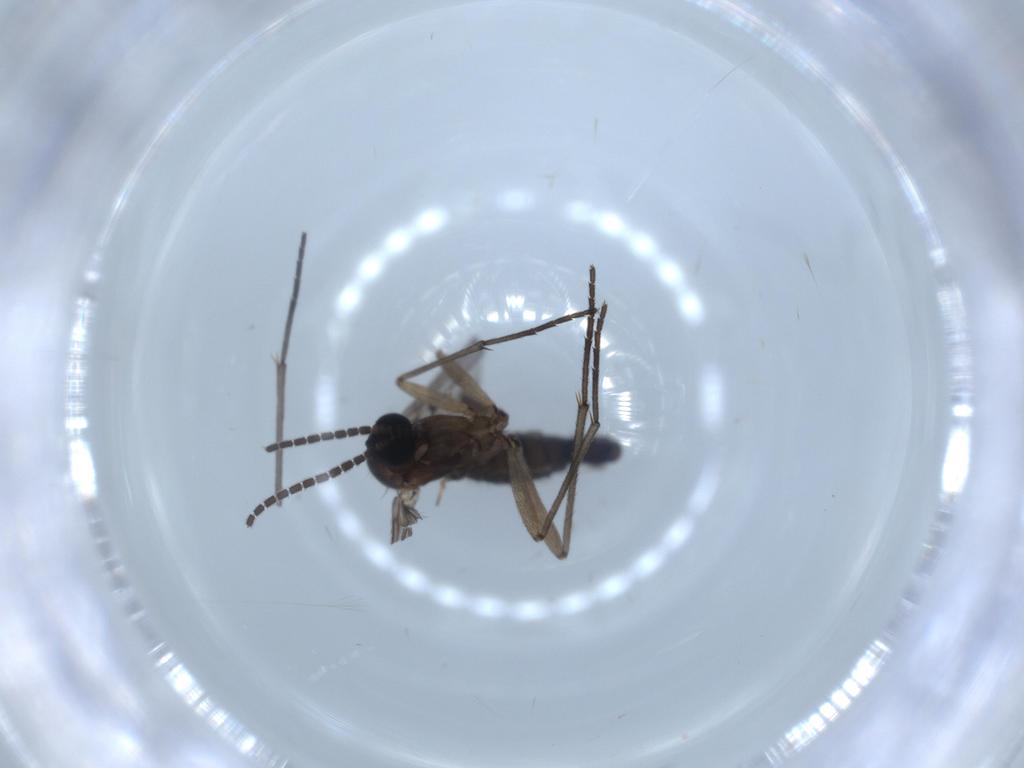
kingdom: Animalia
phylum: Arthropoda
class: Insecta
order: Diptera
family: Sciaridae
